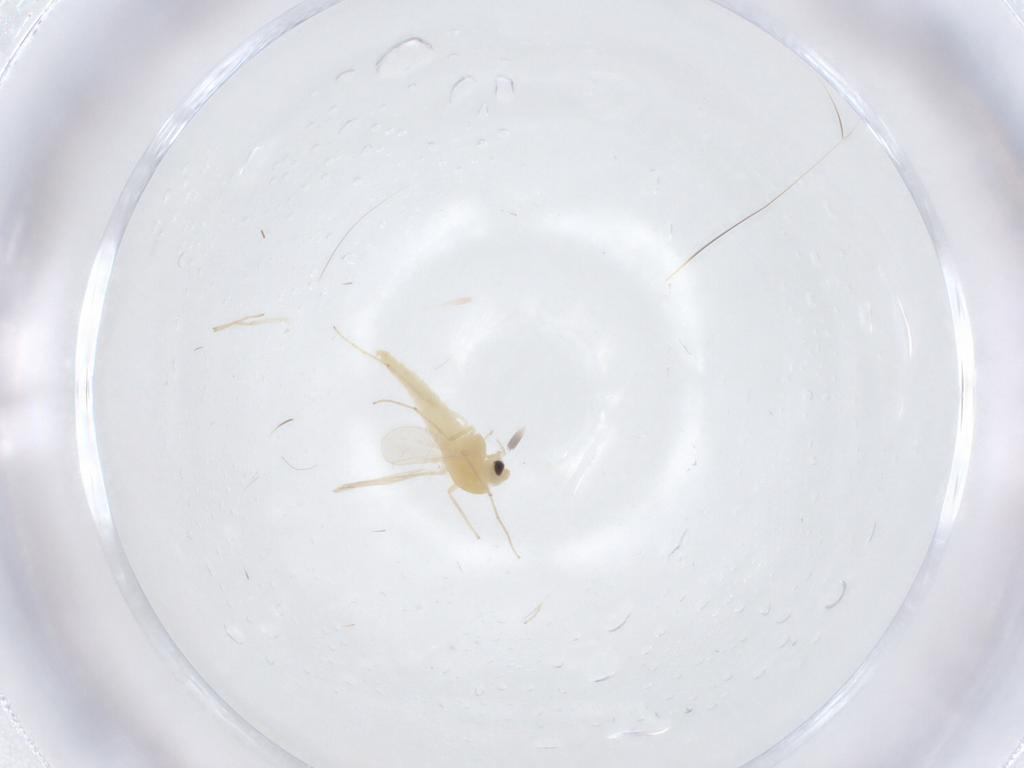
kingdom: Animalia
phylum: Arthropoda
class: Insecta
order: Diptera
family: Chironomidae
